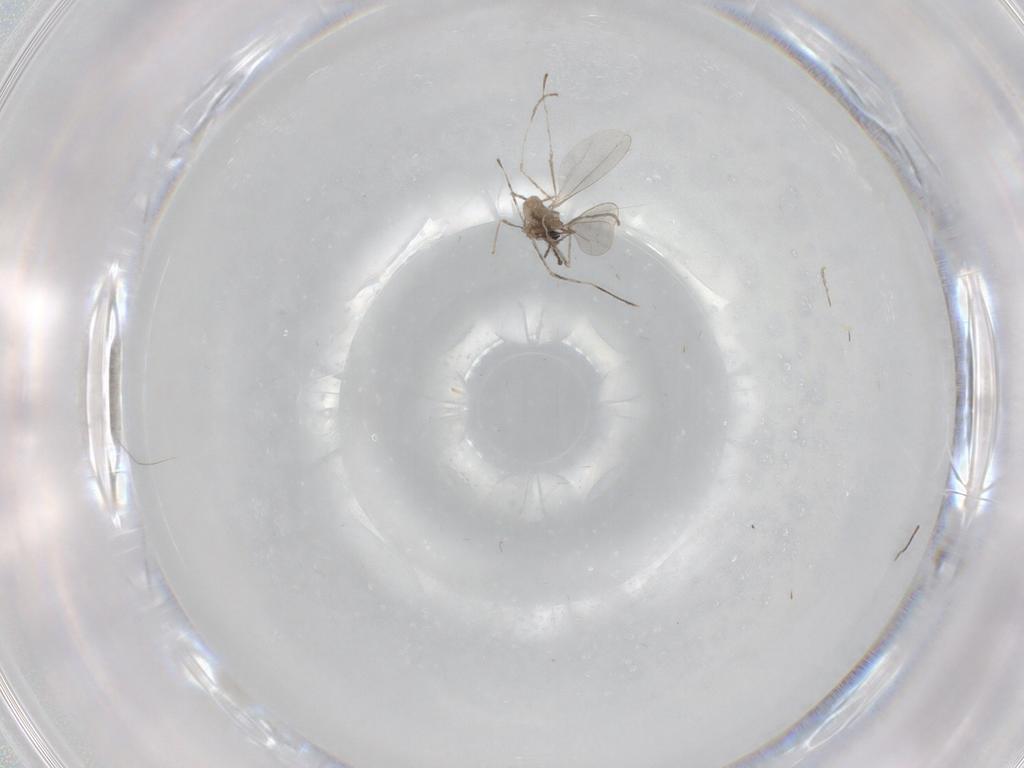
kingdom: Animalia
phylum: Arthropoda
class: Insecta
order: Diptera
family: Cecidomyiidae
